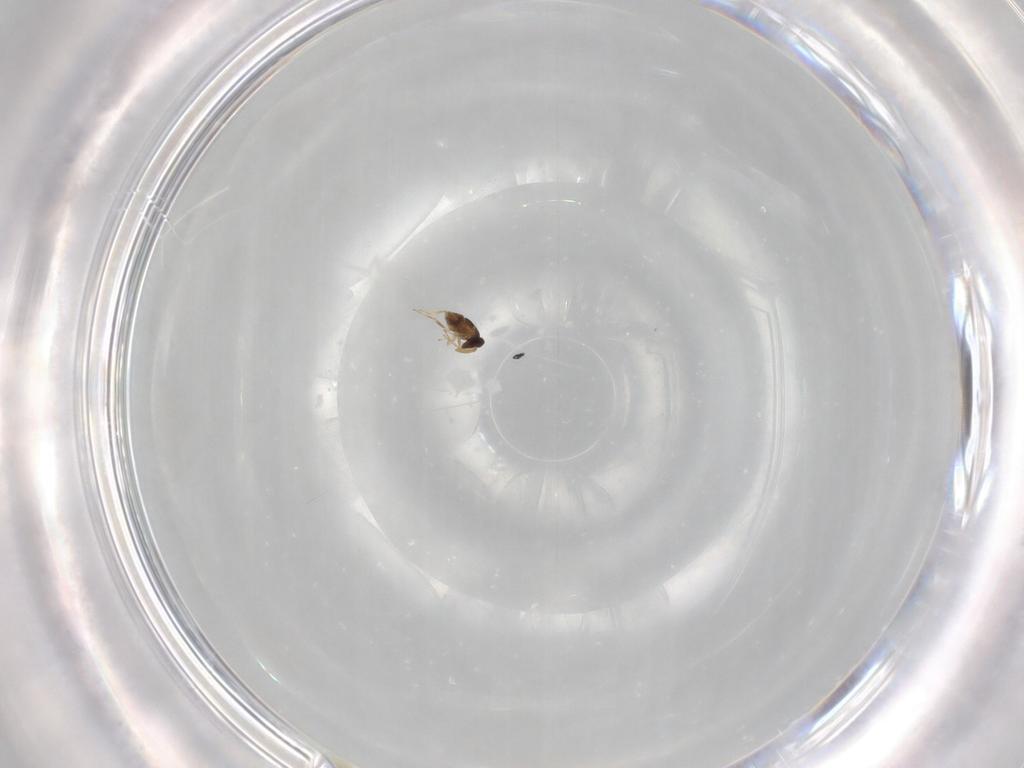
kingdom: Animalia
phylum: Arthropoda
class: Insecta
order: Hymenoptera
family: Encyrtidae
